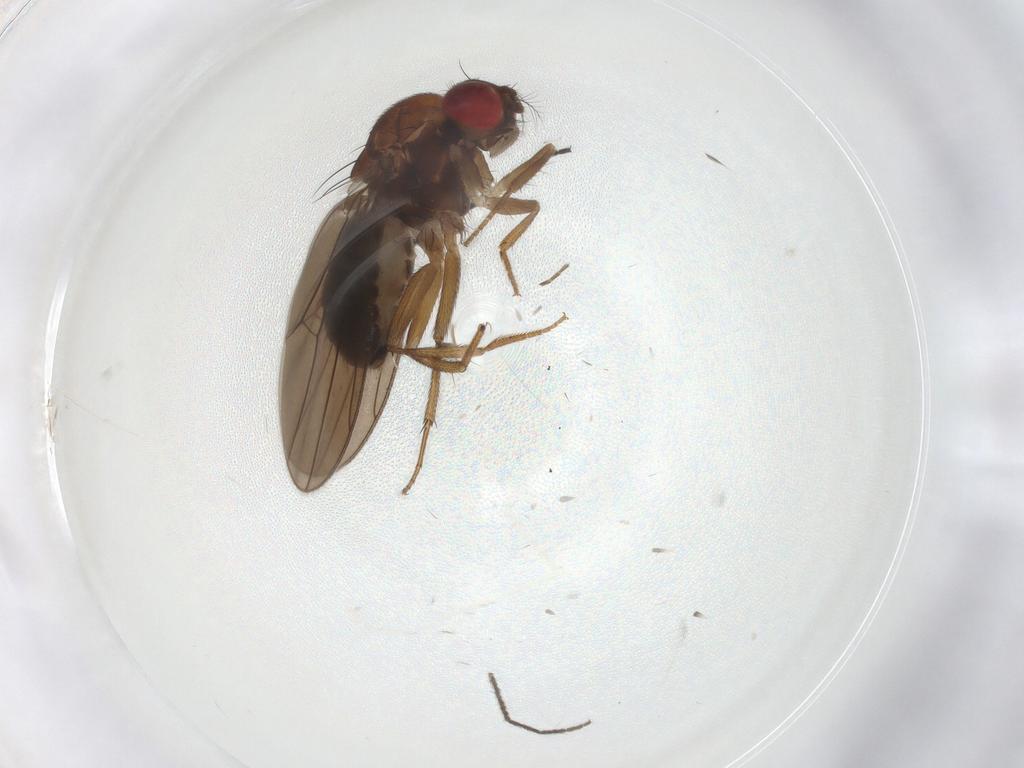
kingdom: Animalia
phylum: Arthropoda
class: Insecta
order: Diptera
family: Drosophilidae
